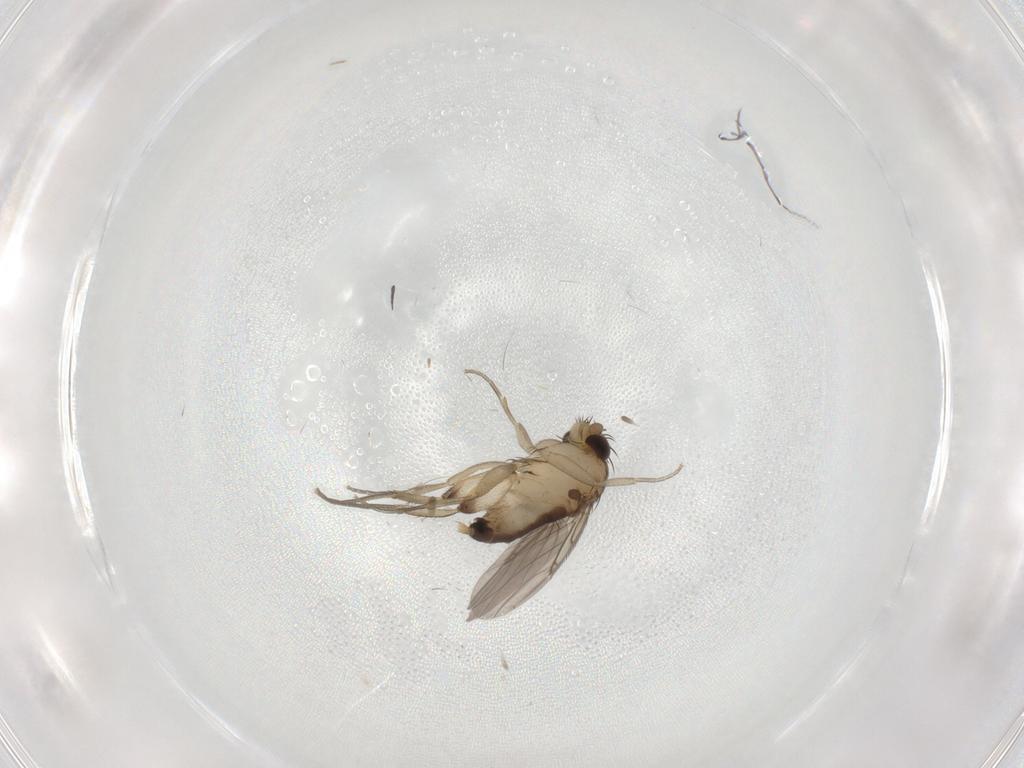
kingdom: Animalia
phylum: Arthropoda
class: Insecta
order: Diptera
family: Phoridae
